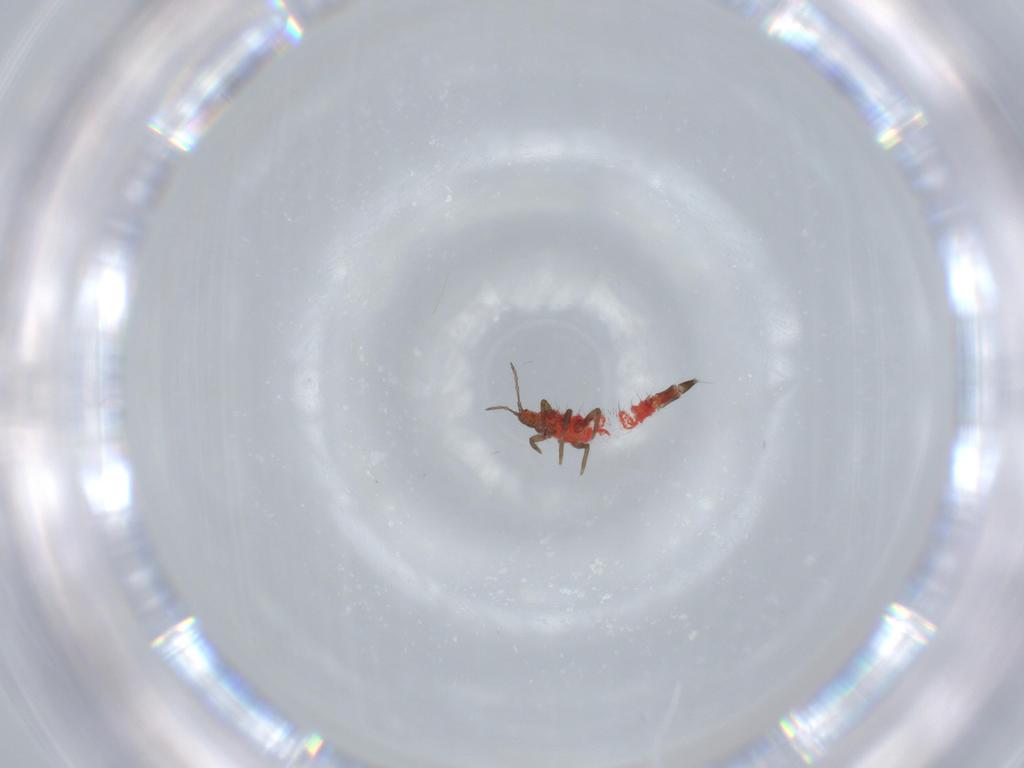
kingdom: Animalia
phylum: Arthropoda
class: Insecta
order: Thysanoptera
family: Phlaeothripidae
